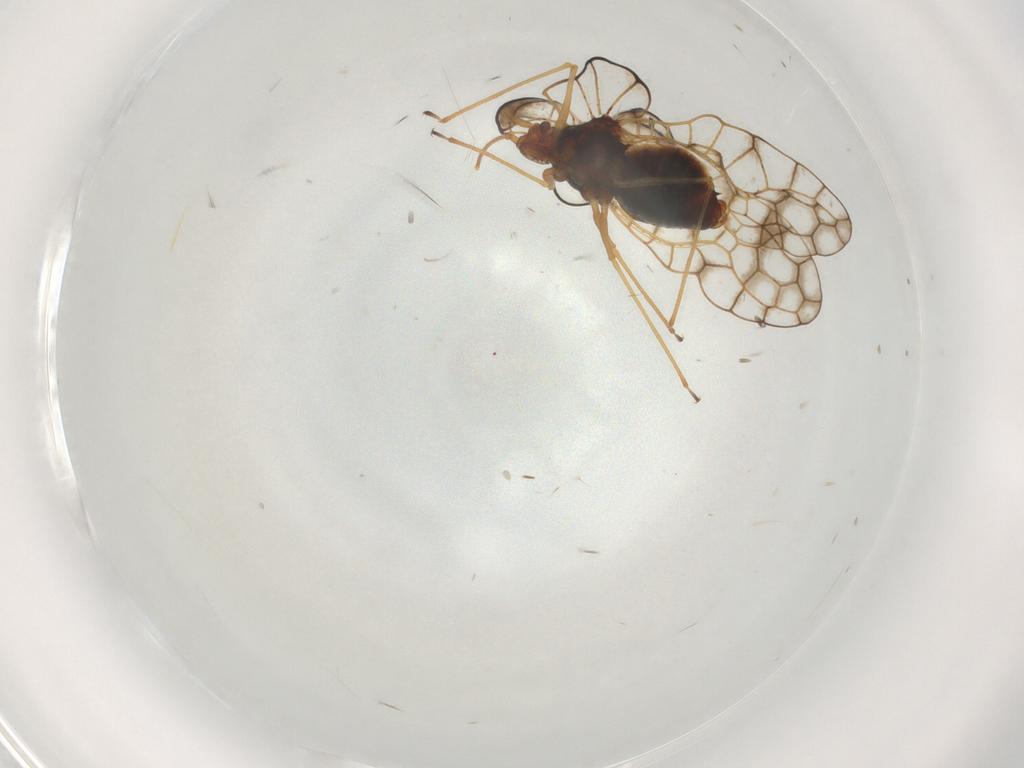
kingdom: Animalia
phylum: Arthropoda
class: Insecta
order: Hemiptera
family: Tingidae
